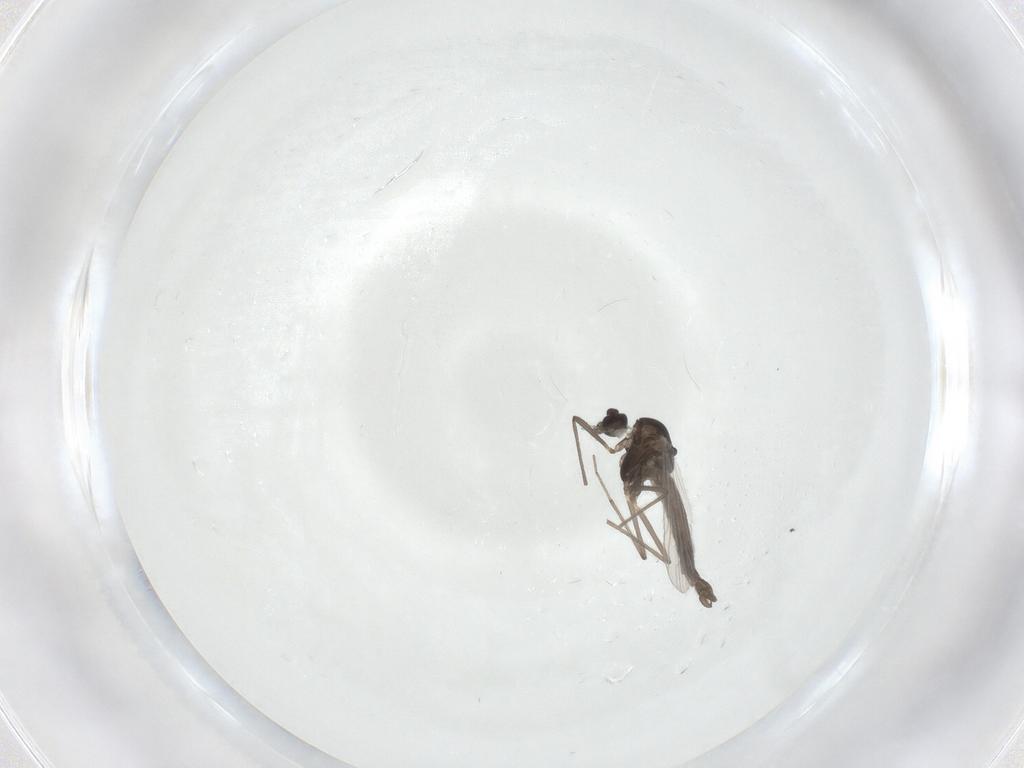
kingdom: Animalia
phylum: Arthropoda
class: Insecta
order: Diptera
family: Chironomidae
